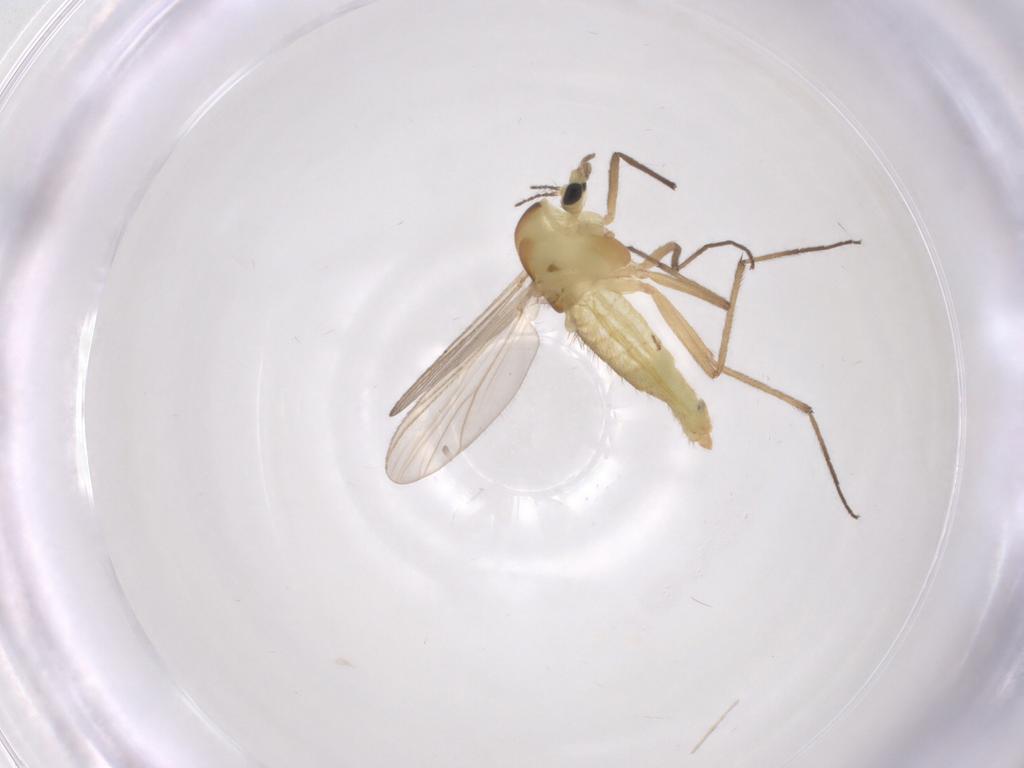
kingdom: Animalia
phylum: Arthropoda
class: Insecta
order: Diptera
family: Chironomidae
